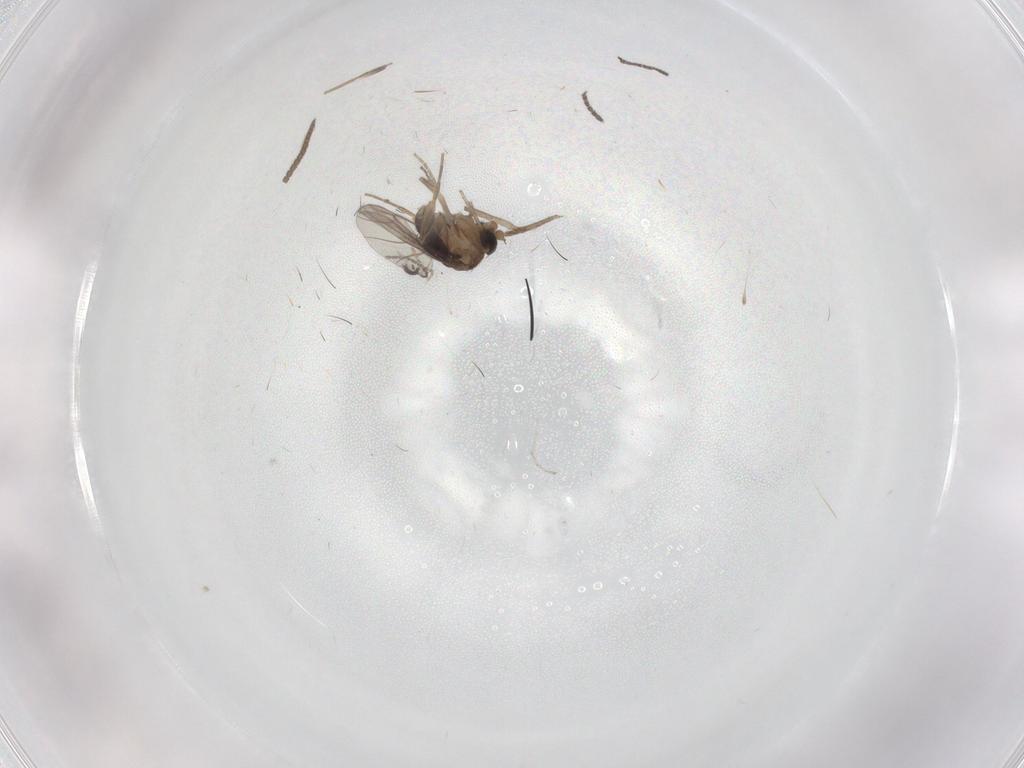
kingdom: Animalia
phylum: Arthropoda
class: Insecta
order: Diptera
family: Phoridae
